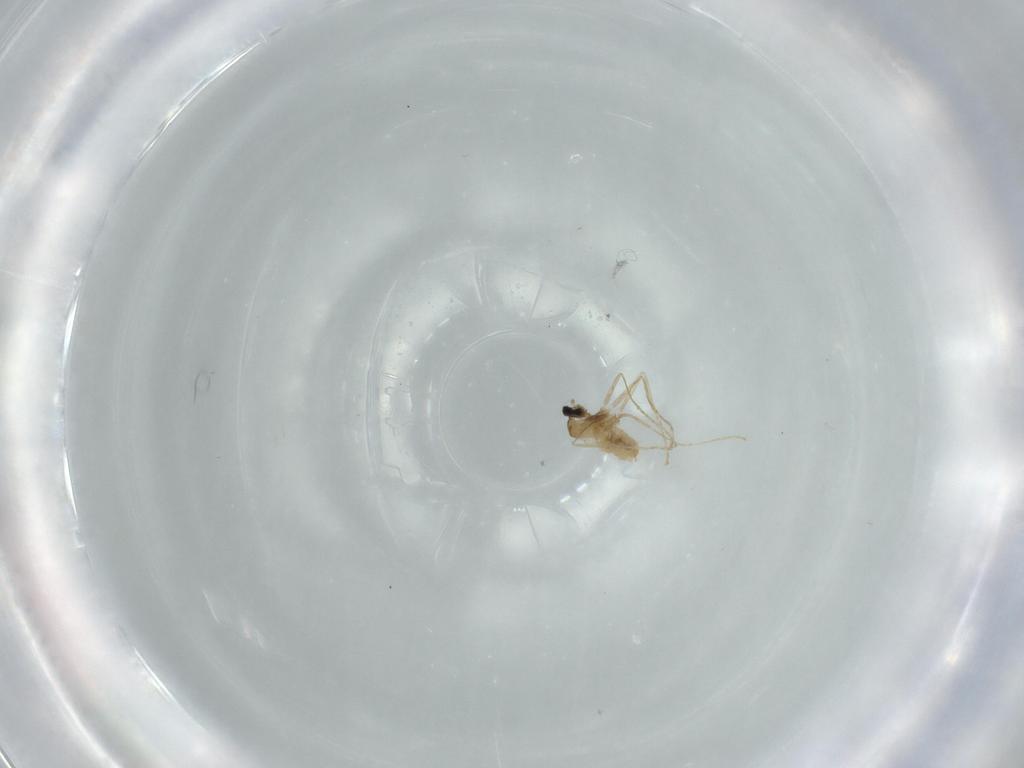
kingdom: Animalia
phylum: Arthropoda
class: Insecta
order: Diptera
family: Cecidomyiidae
